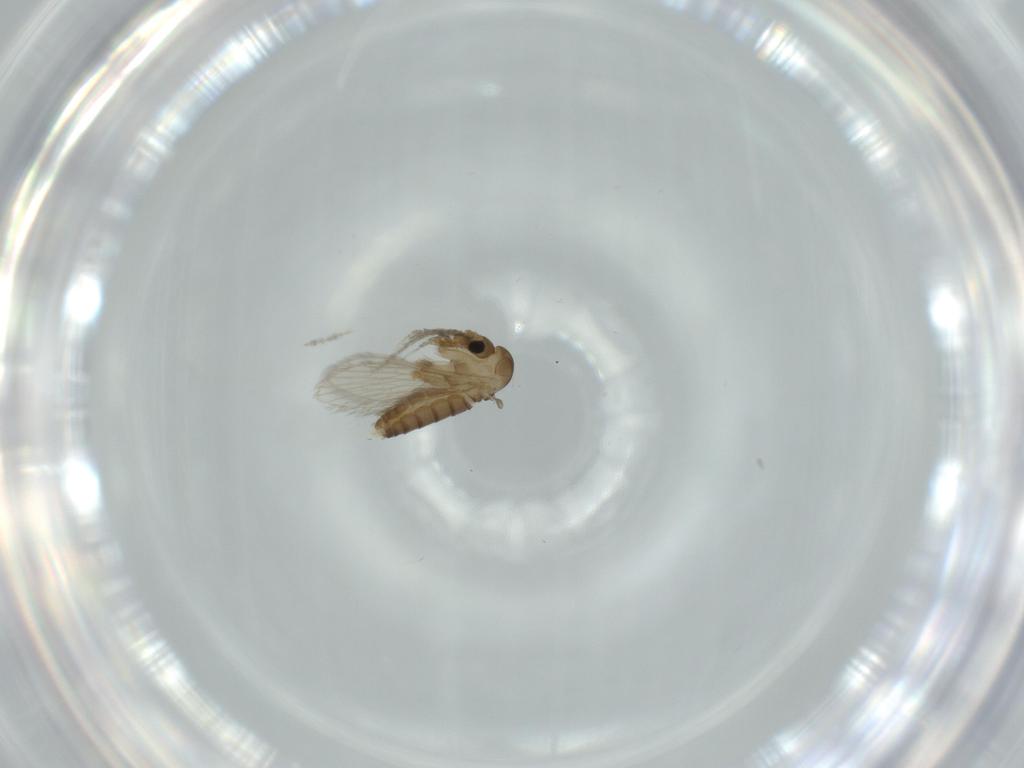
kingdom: Animalia
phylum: Arthropoda
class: Insecta
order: Diptera
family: Psychodidae
